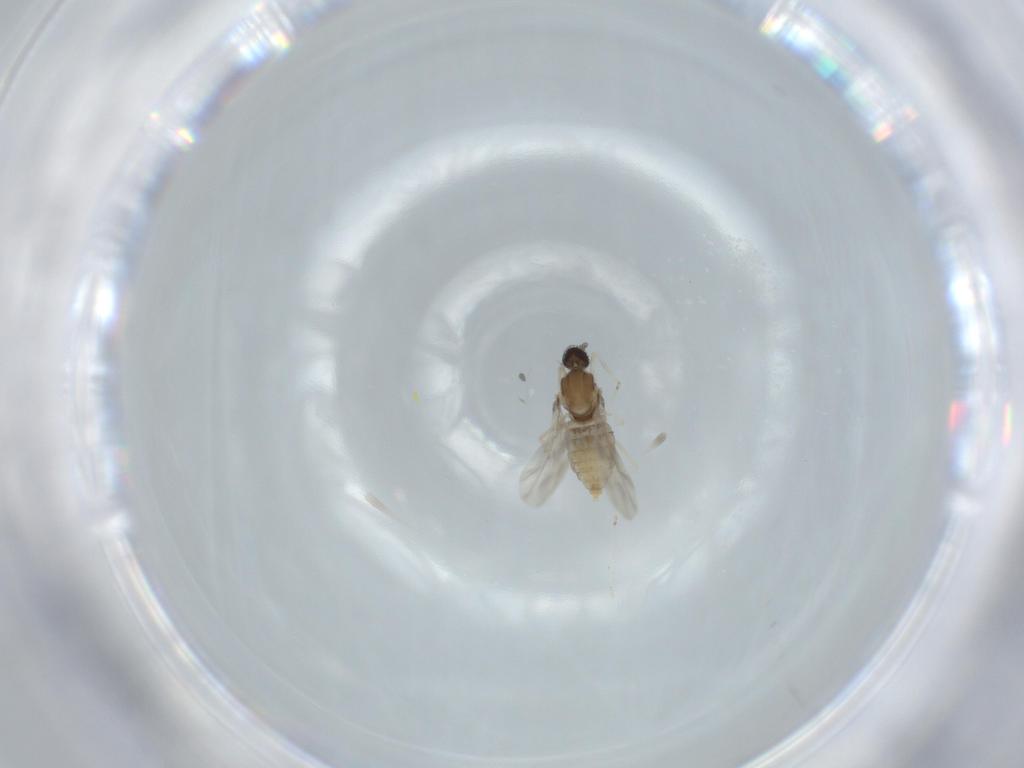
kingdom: Animalia
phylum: Arthropoda
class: Insecta
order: Diptera
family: Cecidomyiidae
